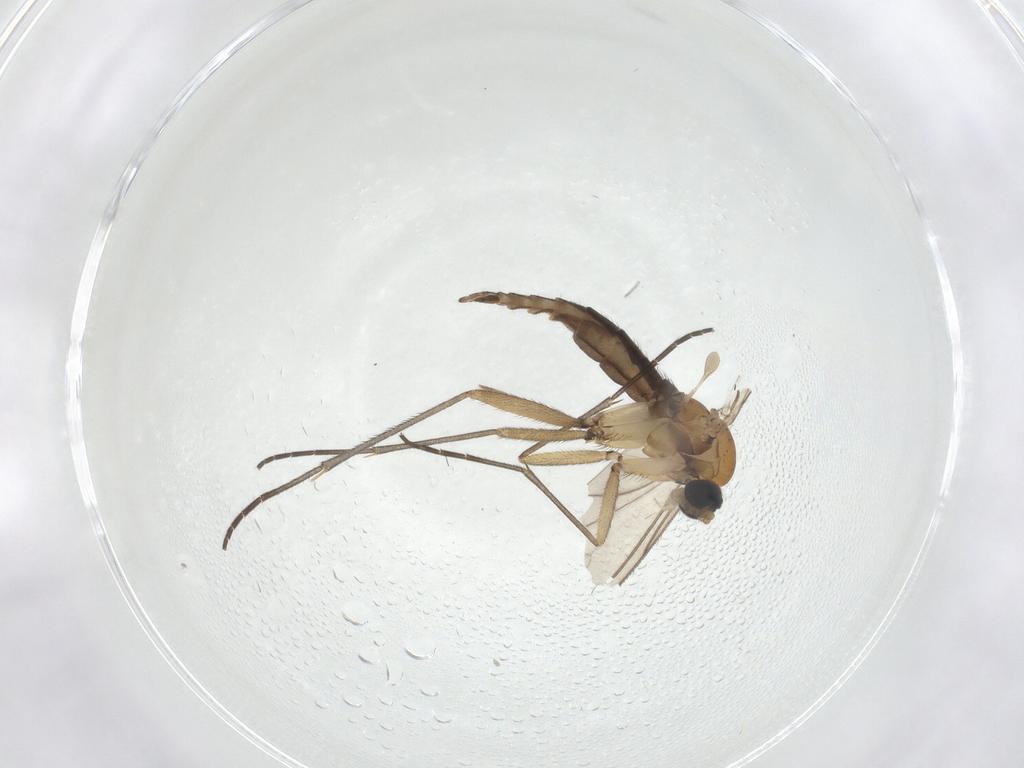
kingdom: Animalia
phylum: Arthropoda
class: Insecta
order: Diptera
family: Sciaridae
